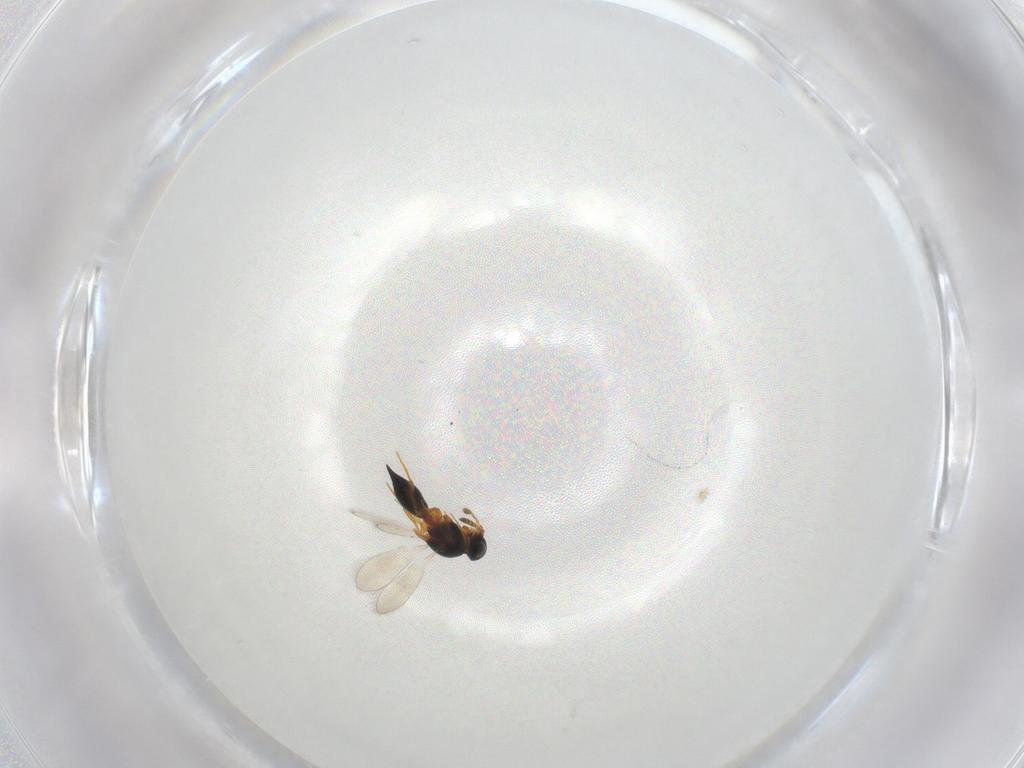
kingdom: Animalia
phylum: Arthropoda
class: Insecta
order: Hymenoptera
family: Platygastridae
